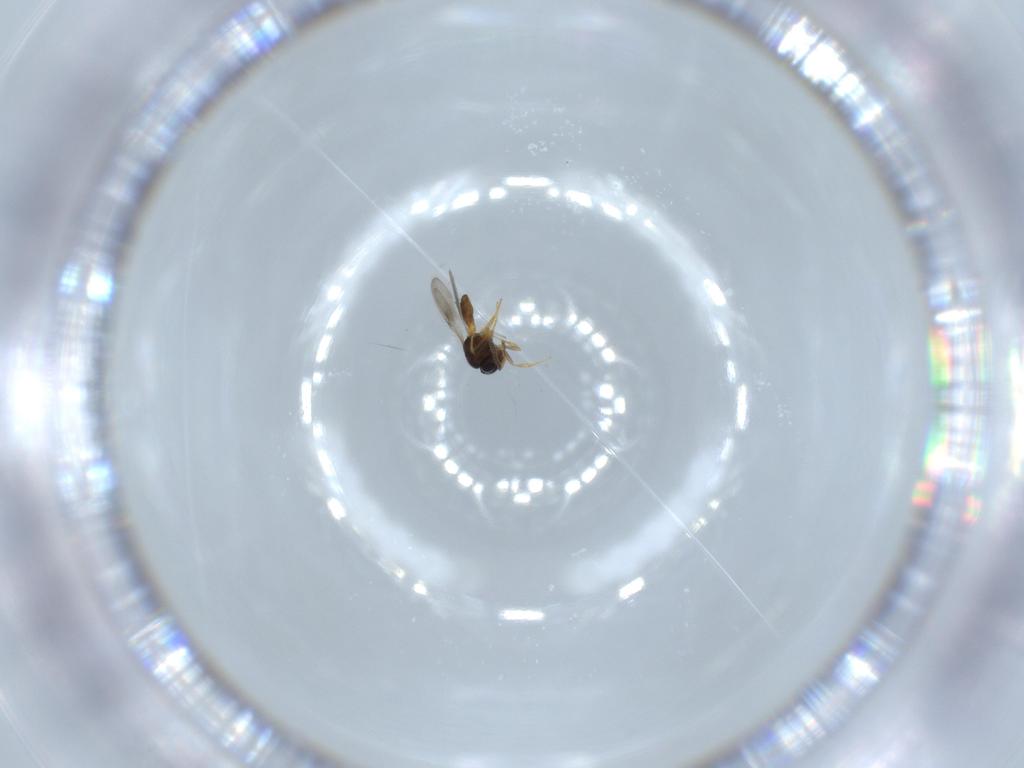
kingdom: Animalia
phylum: Arthropoda
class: Insecta
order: Hymenoptera
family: Scelionidae
